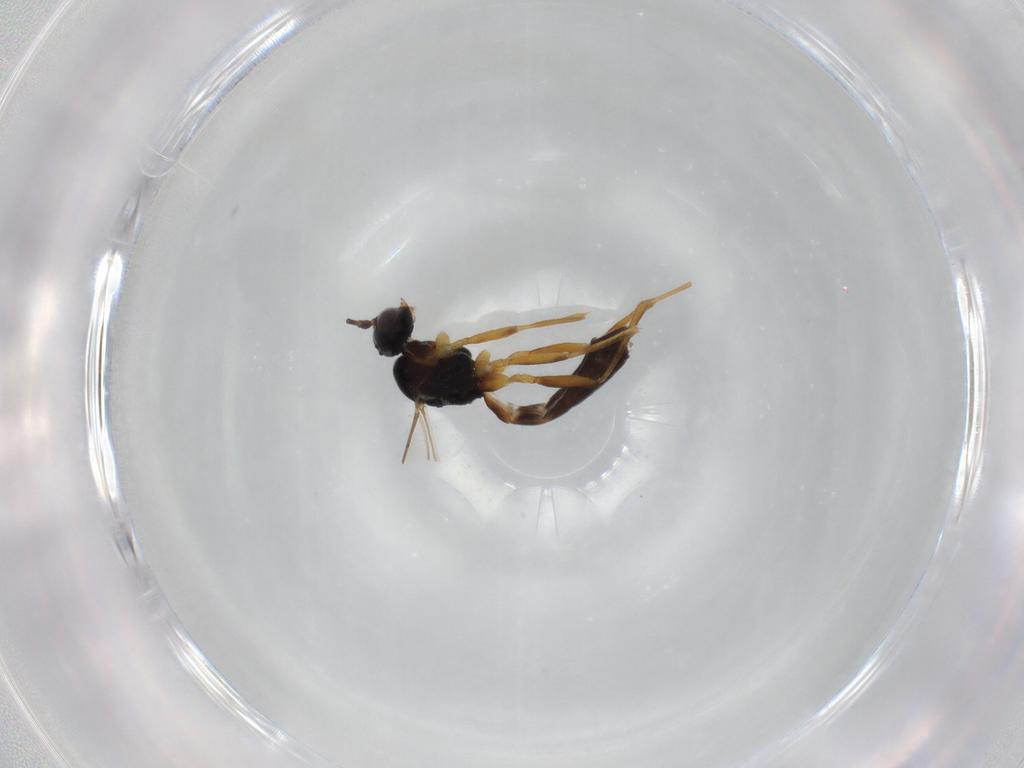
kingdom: Animalia
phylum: Arthropoda
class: Insecta
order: Hymenoptera
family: Braconidae
